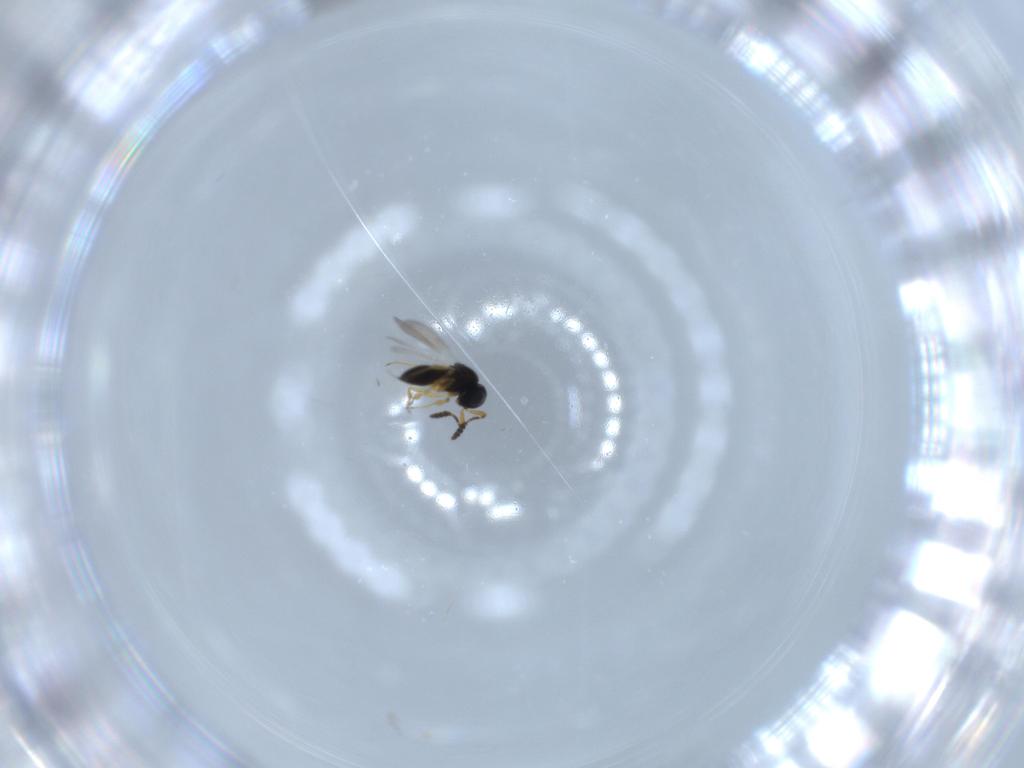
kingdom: Animalia
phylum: Arthropoda
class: Insecta
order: Hymenoptera
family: Scelionidae
